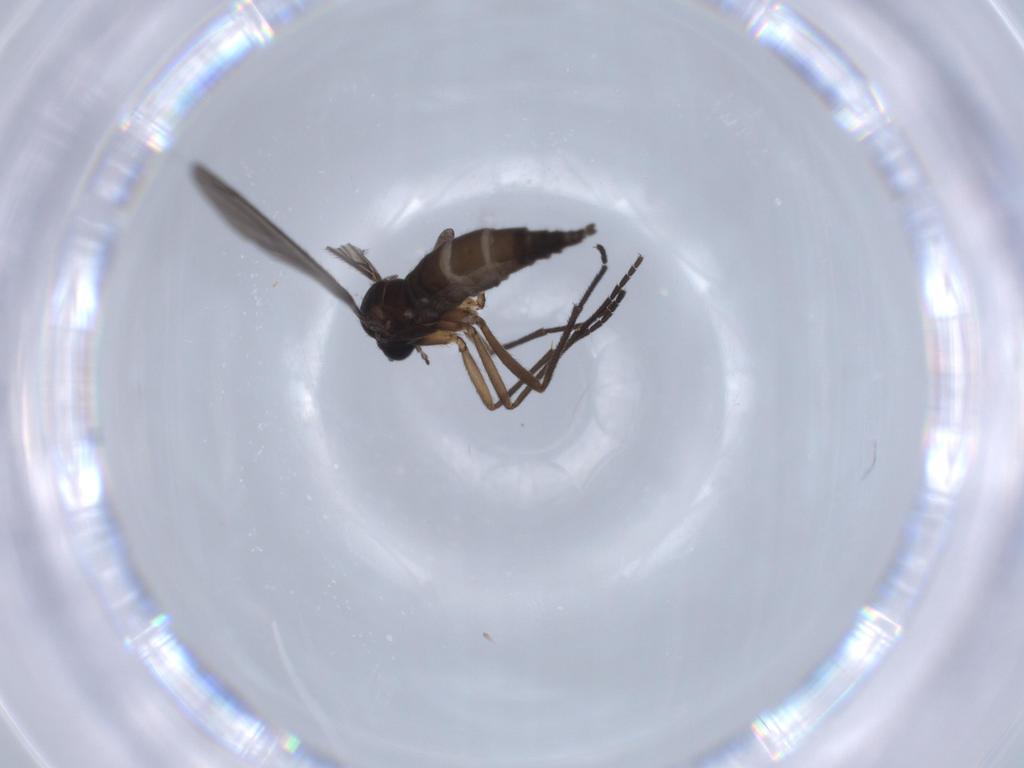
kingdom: Animalia
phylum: Arthropoda
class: Insecta
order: Diptera
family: Sciaridae
